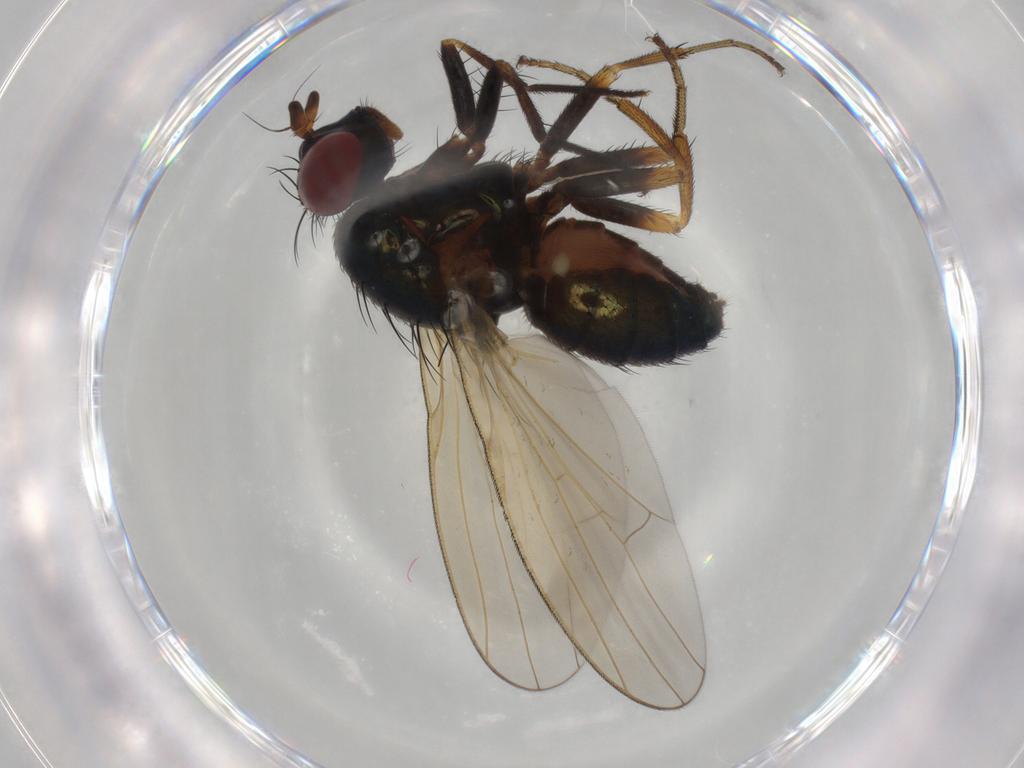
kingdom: Animalia
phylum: Arthropoda
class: Insecta
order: Diptera
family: Lauxaniidae
